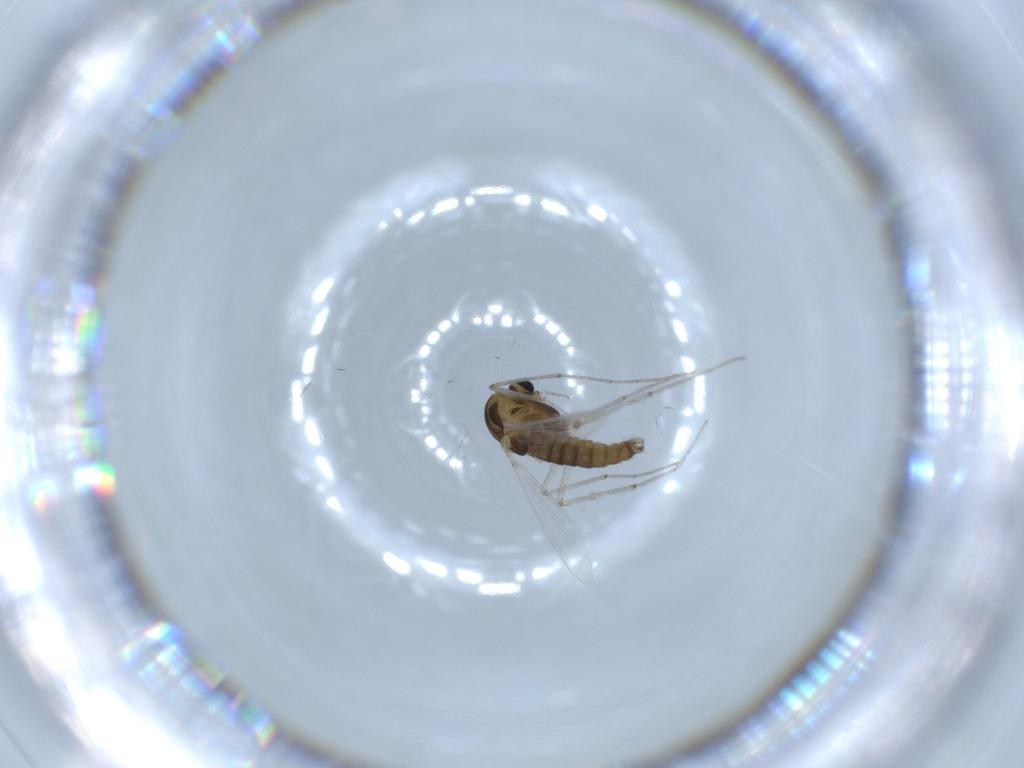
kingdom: Animalia
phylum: Arthropoda
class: Insecta
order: Diptera
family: Chironomidae
